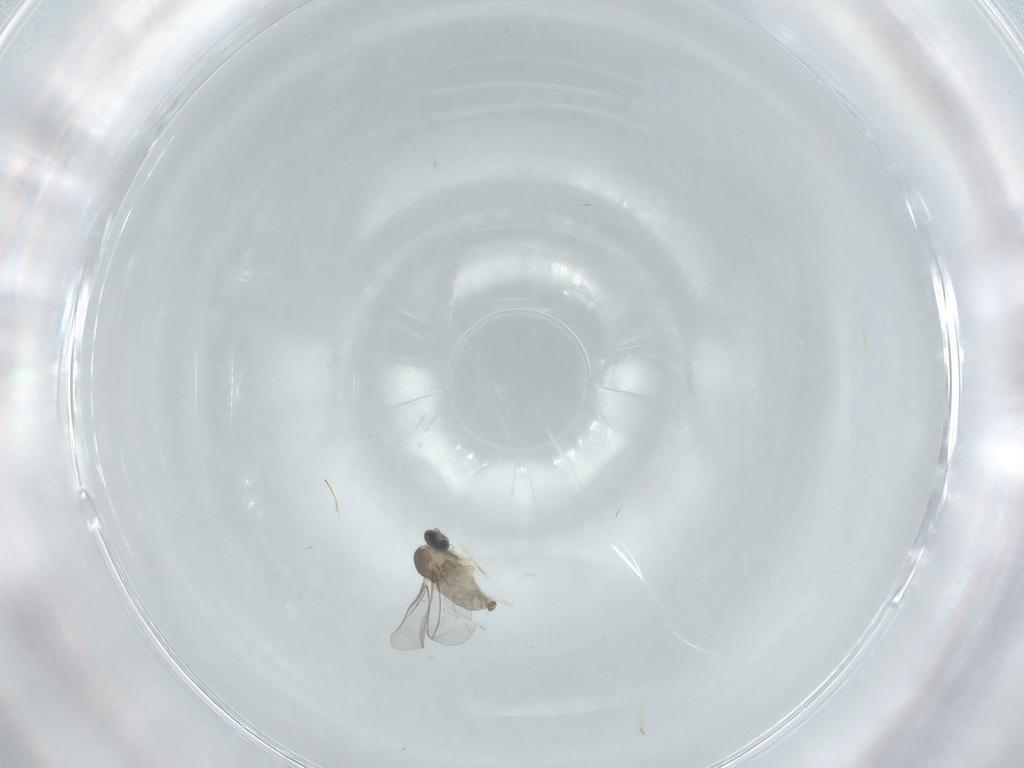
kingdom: Animalia
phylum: Arthropoda
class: Insecta
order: Diptera
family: Cecidomyiidae
